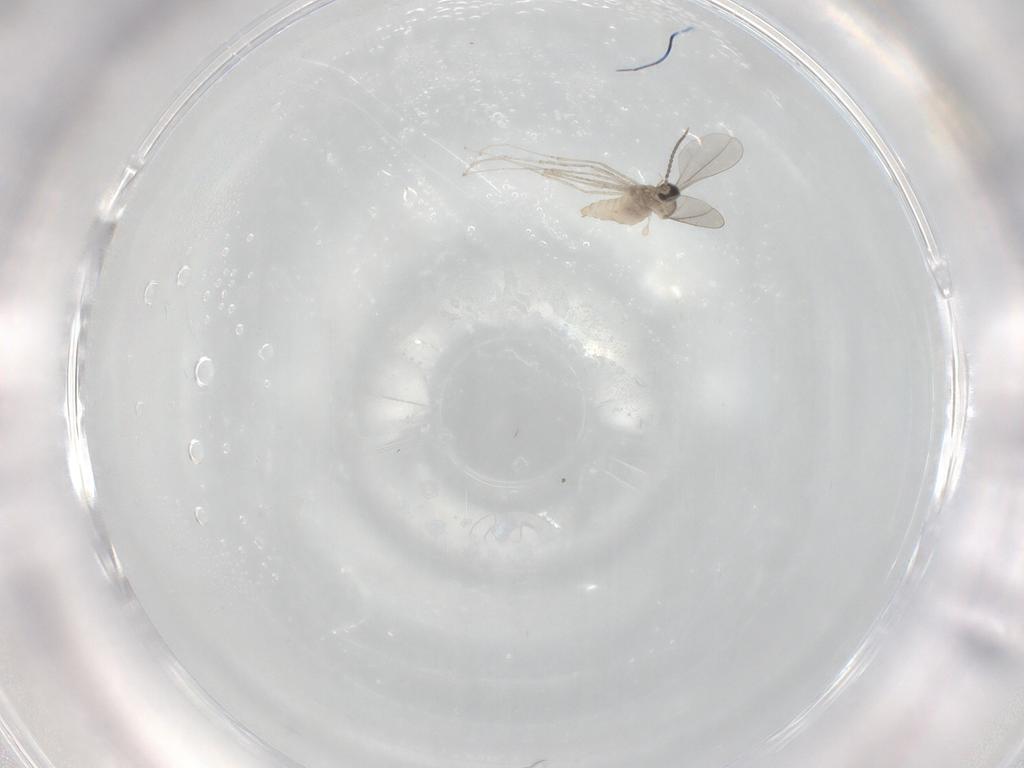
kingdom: Animalia
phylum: Arthropoda
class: Insecta
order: Diptera
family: Cecidomyiidae
